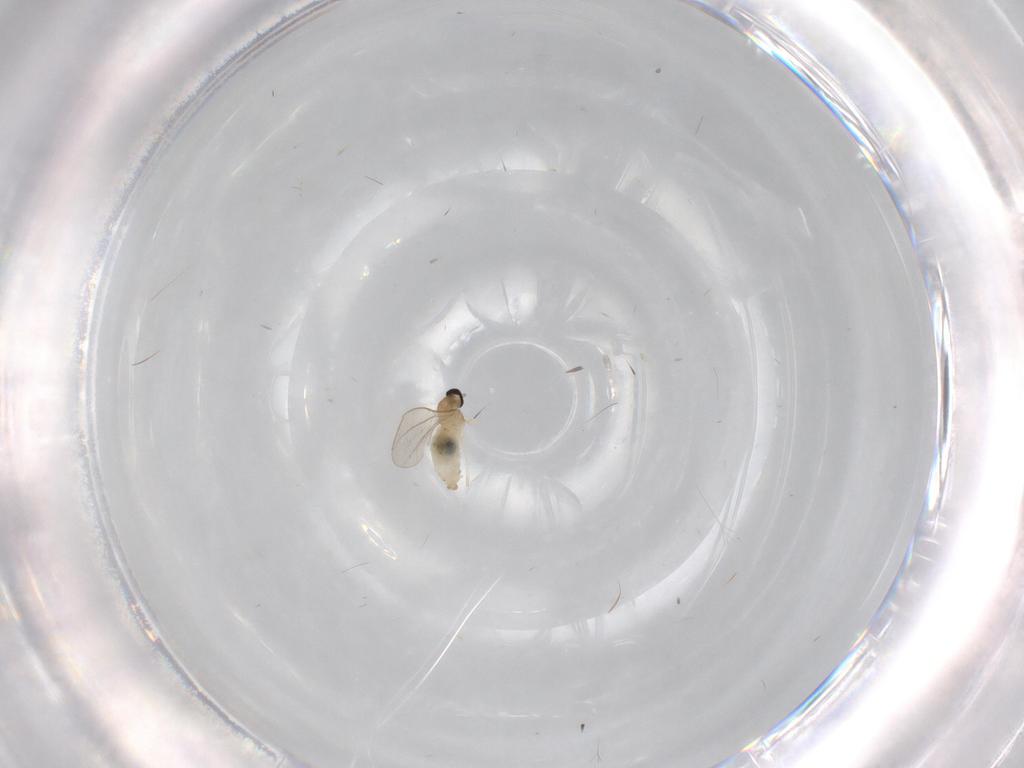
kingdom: Animalia
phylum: Arthropoda
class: Insecta
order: Diptera
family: Cecidomyiidae
